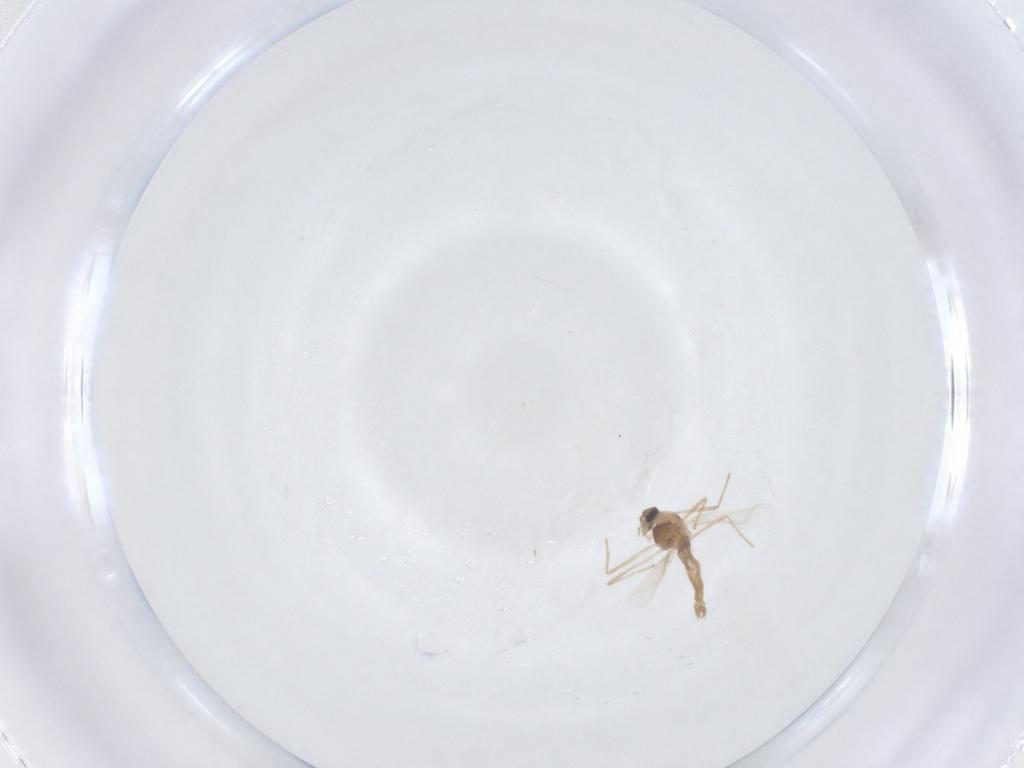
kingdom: Animalia
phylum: Arthropoda
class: Insecta
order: Diptera
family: Chironomidae
